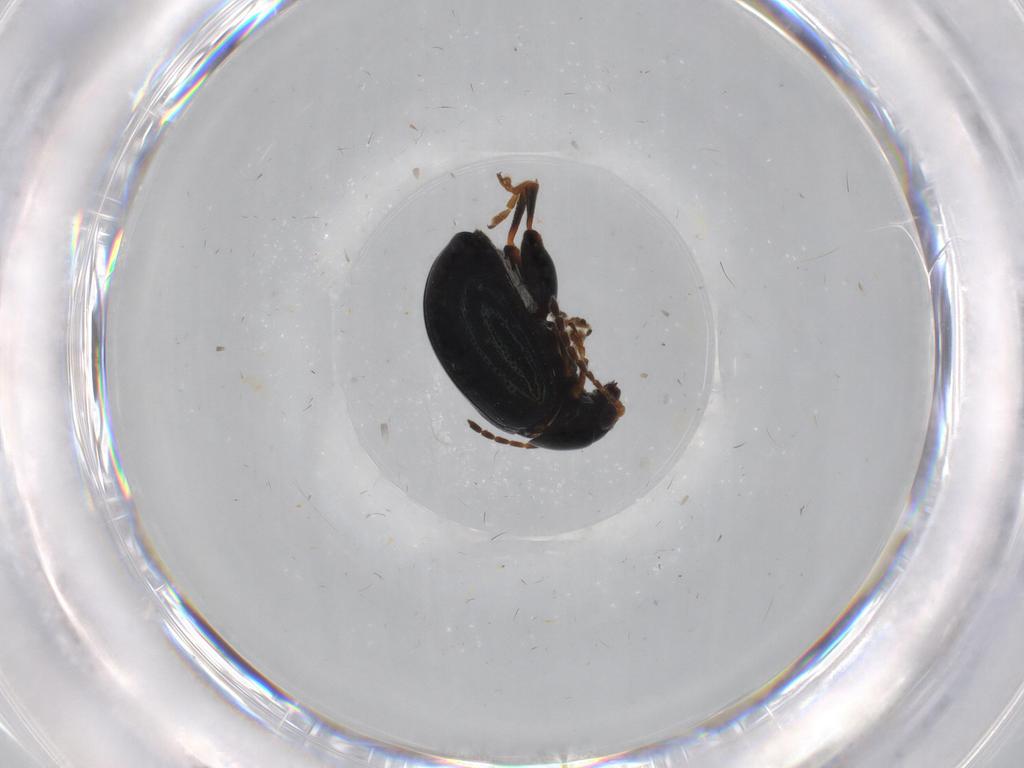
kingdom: Animalia
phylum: Arthropoda
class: Insecta
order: Coleoptera
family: Chrysomelidae
